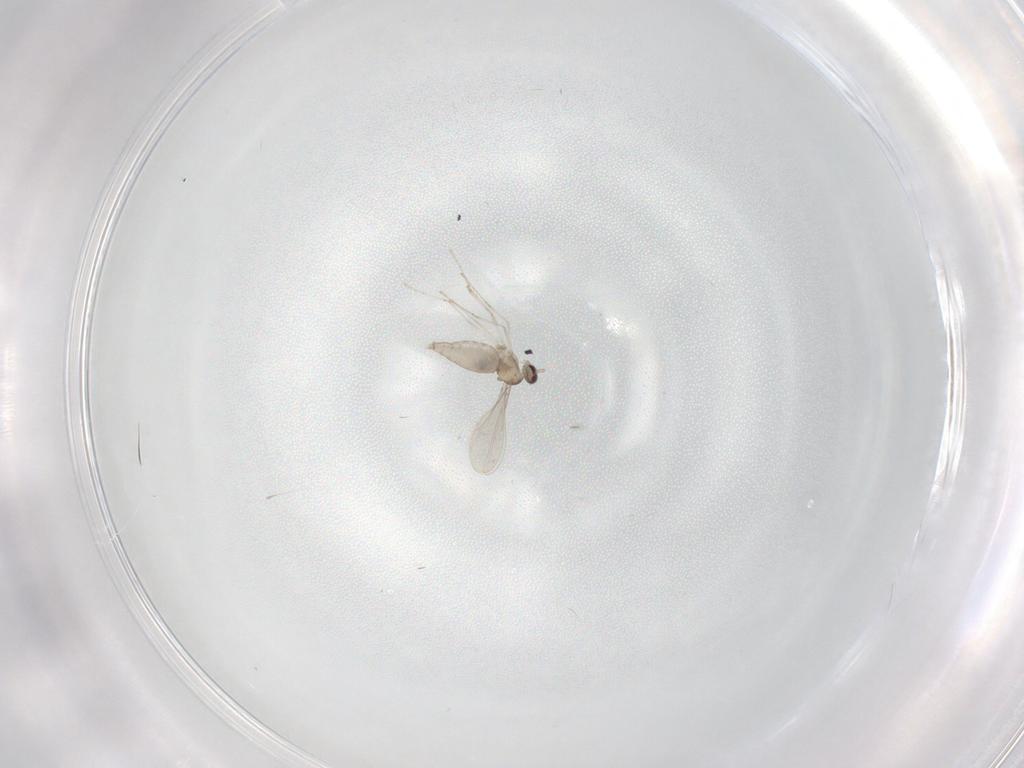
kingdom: Animalia
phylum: Arthropoda
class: Insecta
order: Diptera
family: Cecidomyiidae
